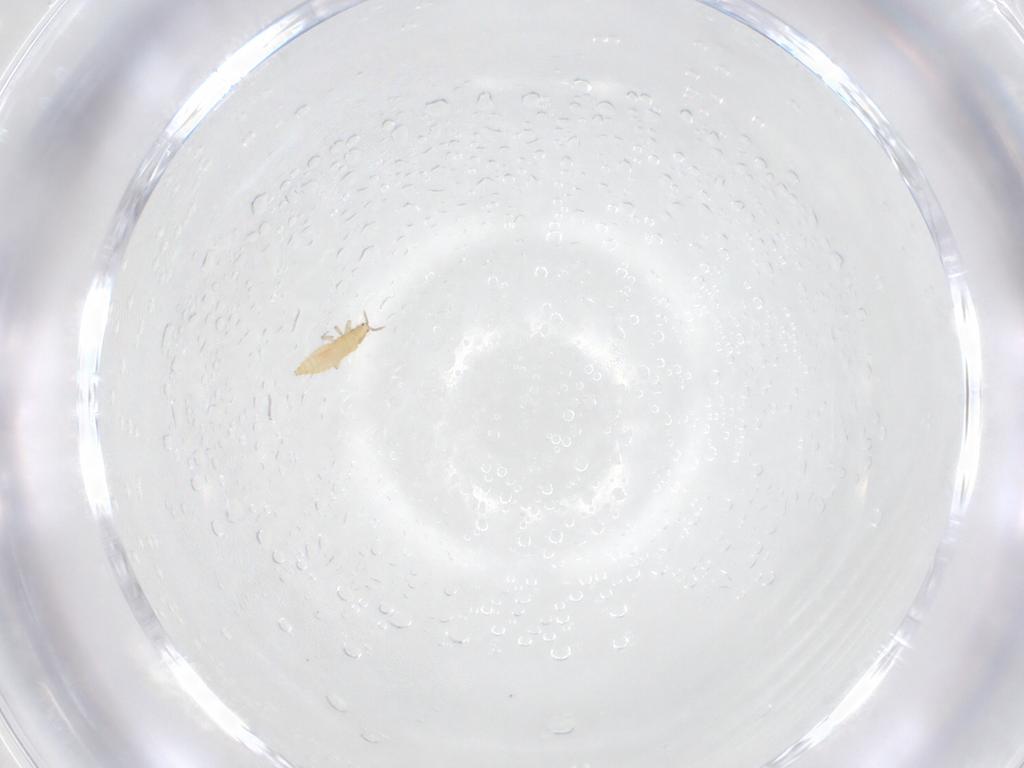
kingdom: Animalia
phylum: Arthropoda
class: Insecta
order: Thysanoptera
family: Aeolothripidae
